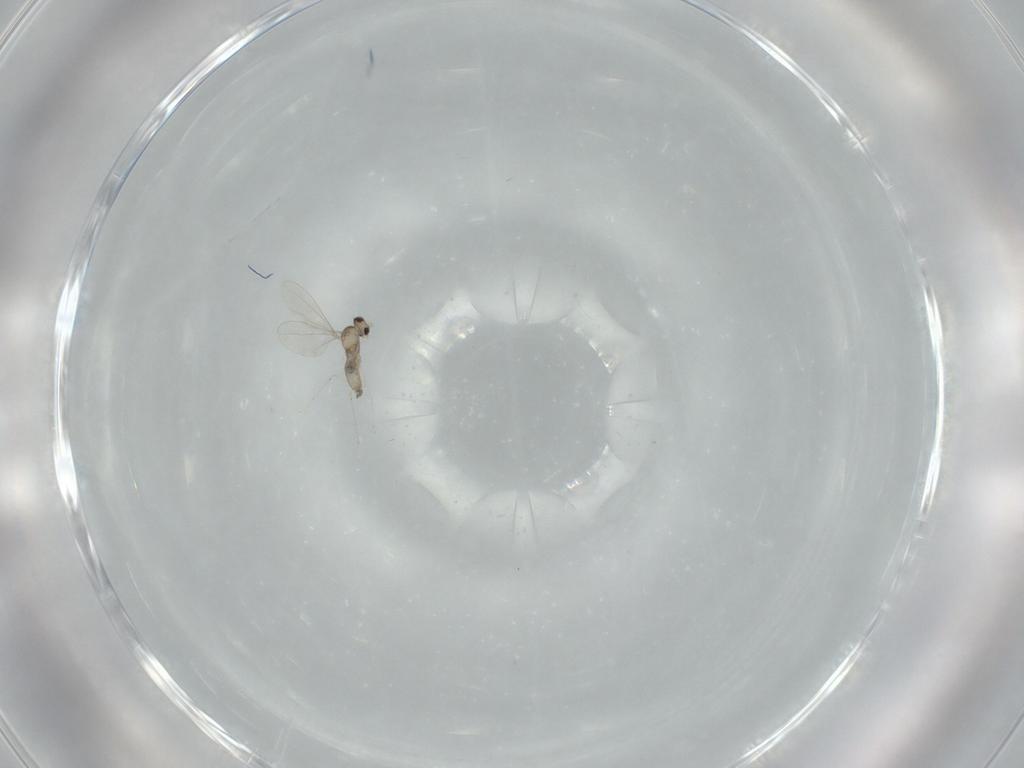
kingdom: Animalia
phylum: Arthropoda
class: Insecta
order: Diptera
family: Cecidomyiidae
